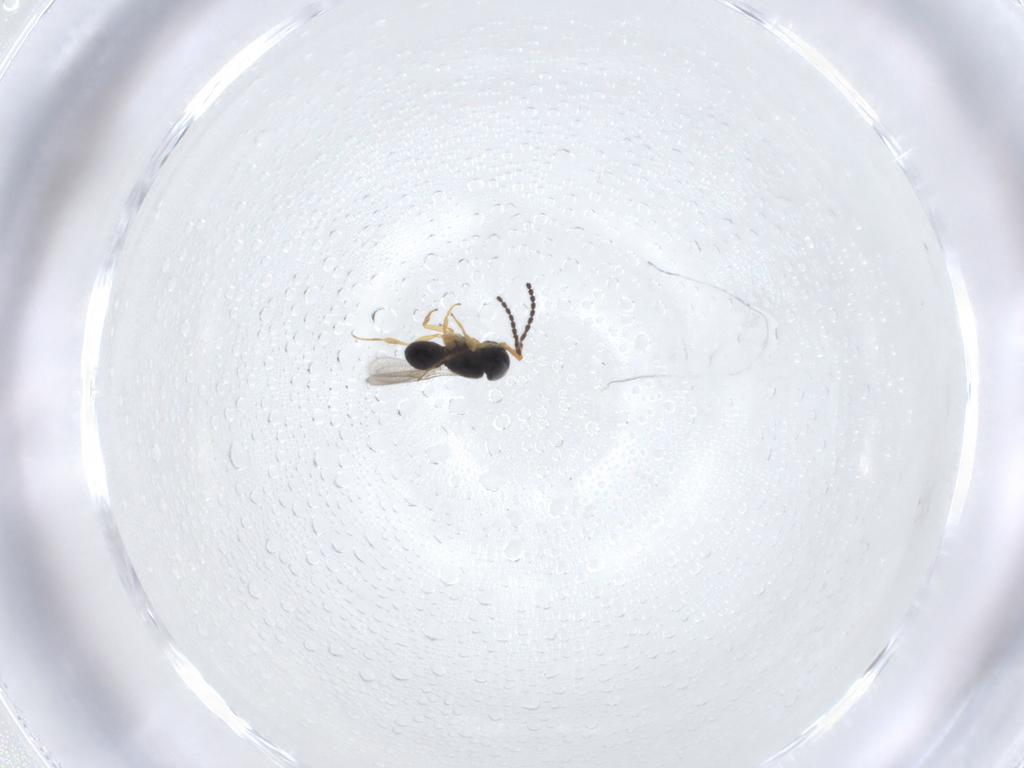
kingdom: Animalia
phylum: Arthropoda
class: Insecta
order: Hymenoptera
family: Scelionidae
